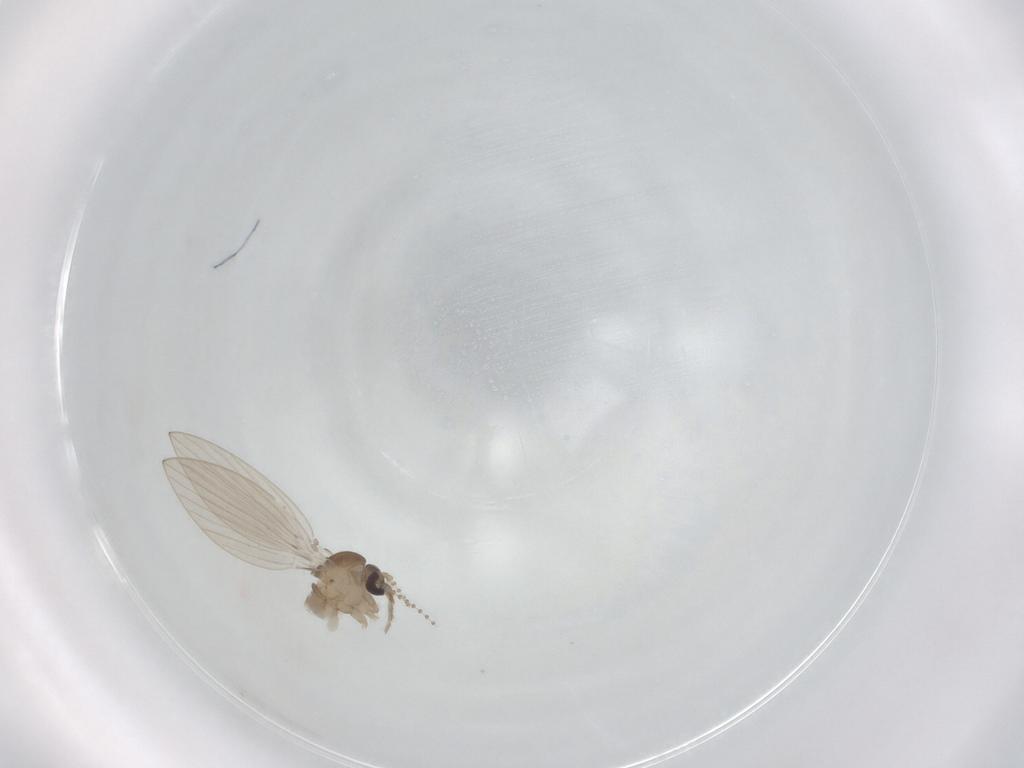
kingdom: Animalia
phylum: Arthropoda
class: Insecta
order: Diptera
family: Psychodidae
